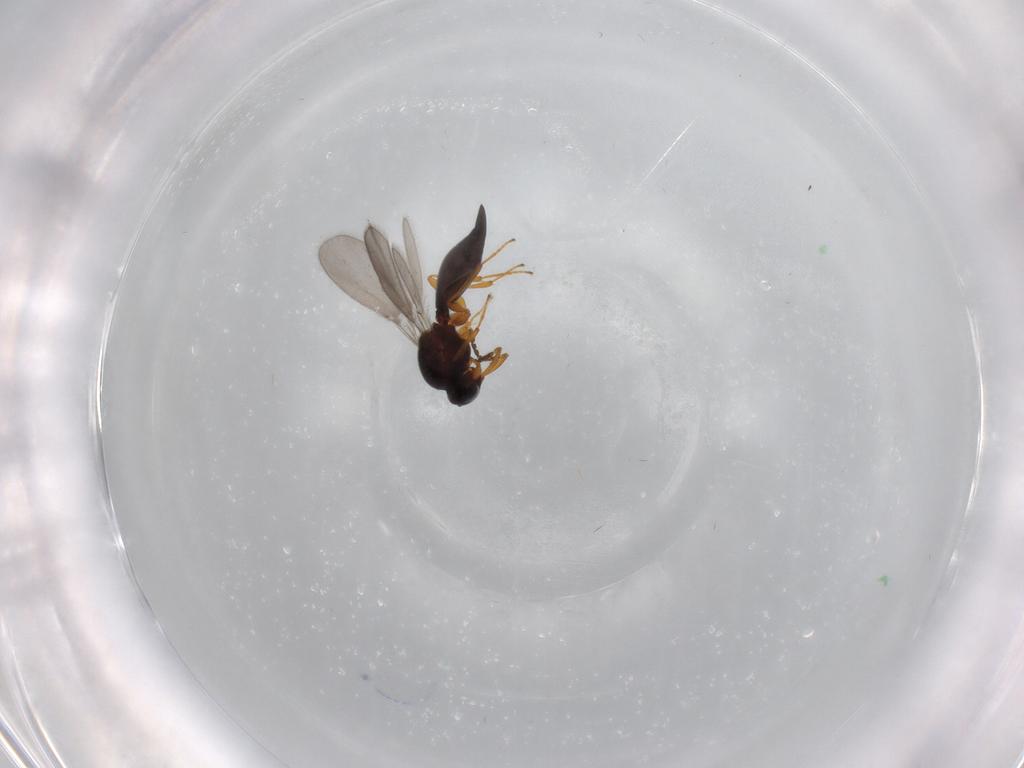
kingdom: Animalia
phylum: Arthropoda
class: Insecta
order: Hymenoptera
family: Platygastridae
